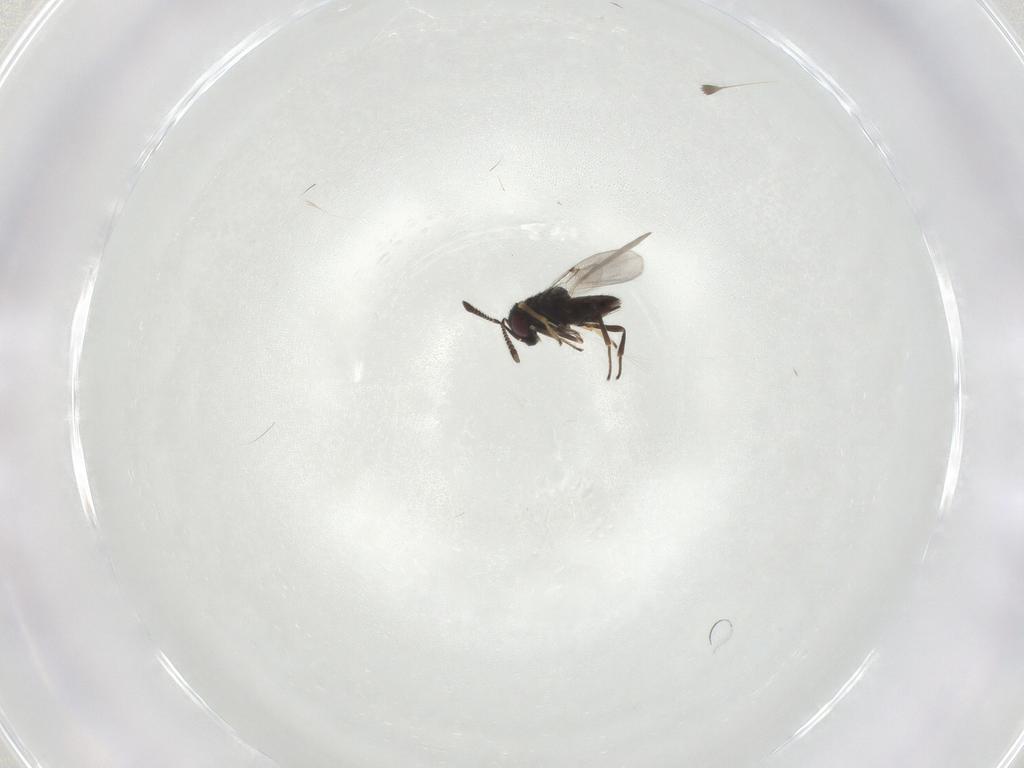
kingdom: Animalia
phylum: Arthropoda
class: Insecta
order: Hymenoptera
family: Encyrtidae
